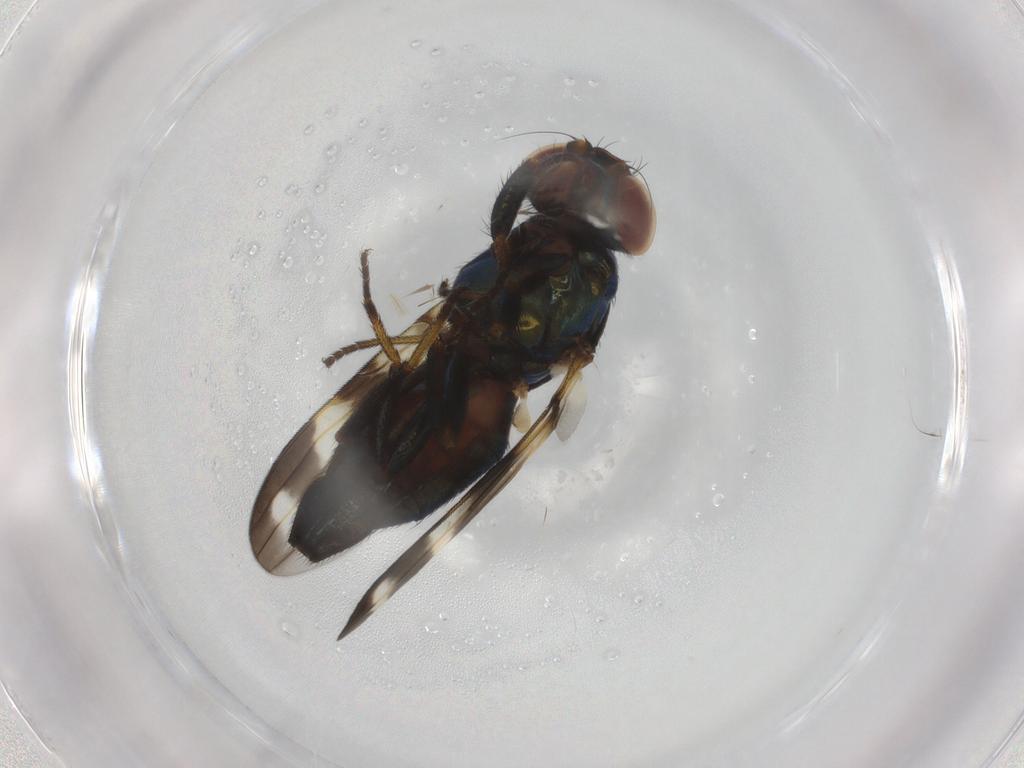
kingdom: Animalia
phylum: Arthropoda
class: Insecta
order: Diptera
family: Ulidiidae
